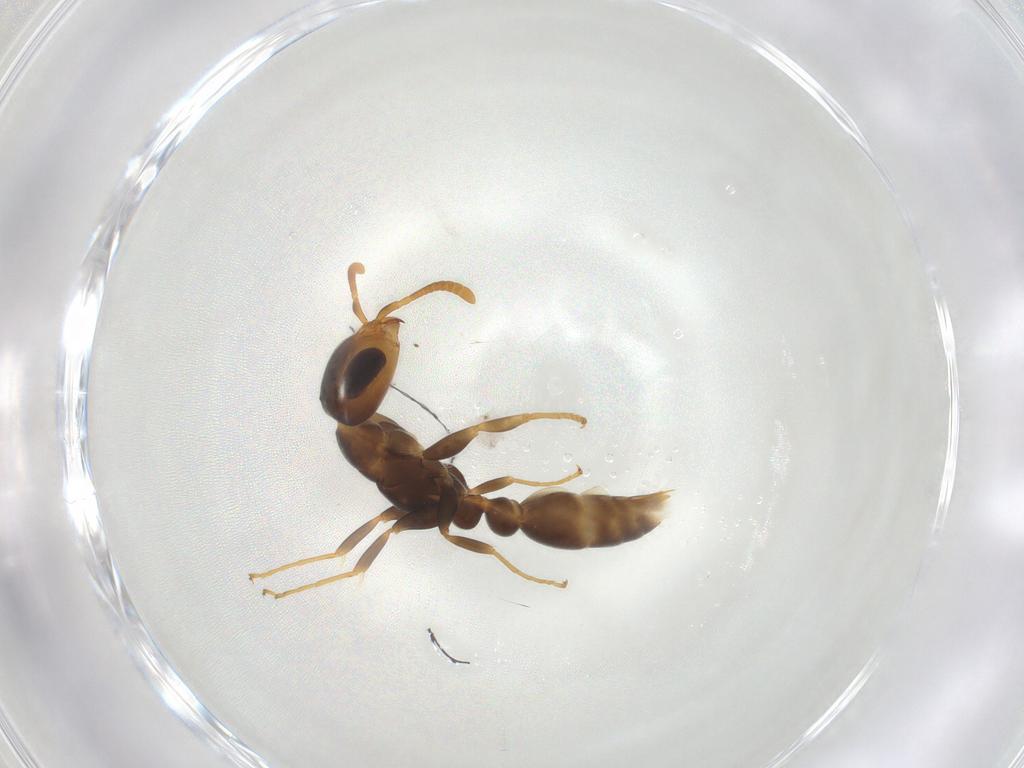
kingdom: Animalia
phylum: Arthropoda
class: Insecta
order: Hymenoptera
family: Formicidae
